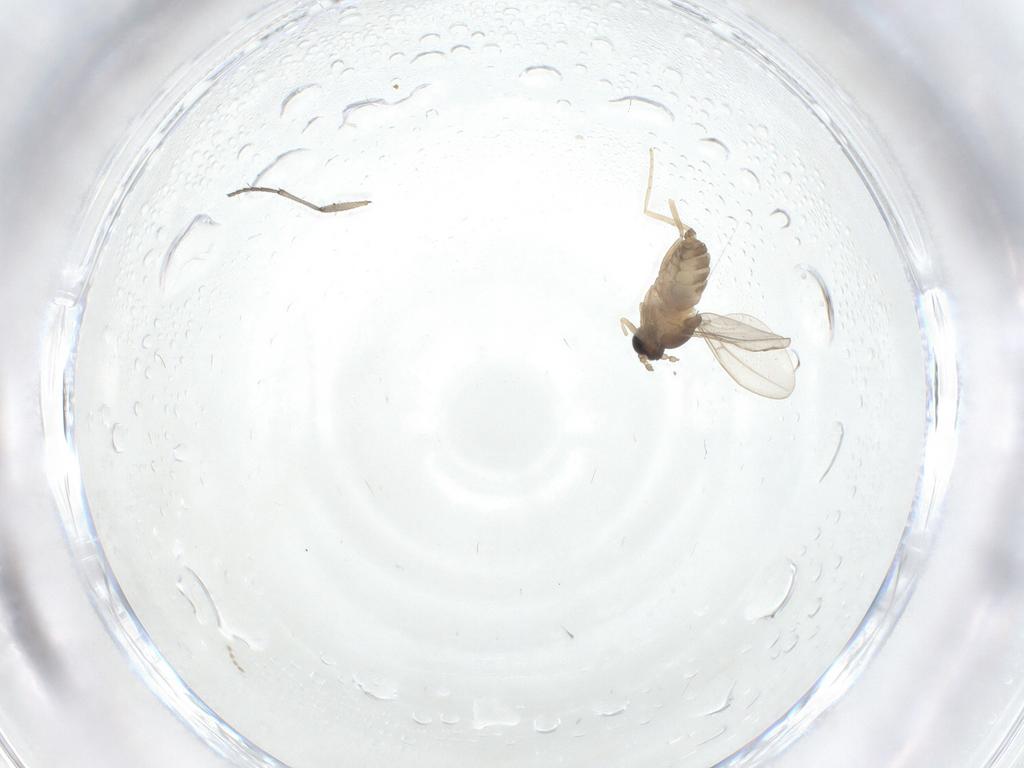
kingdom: Animalia
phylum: Arthropoda
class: Insecta
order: Diptera
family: Cecidomyiidae
